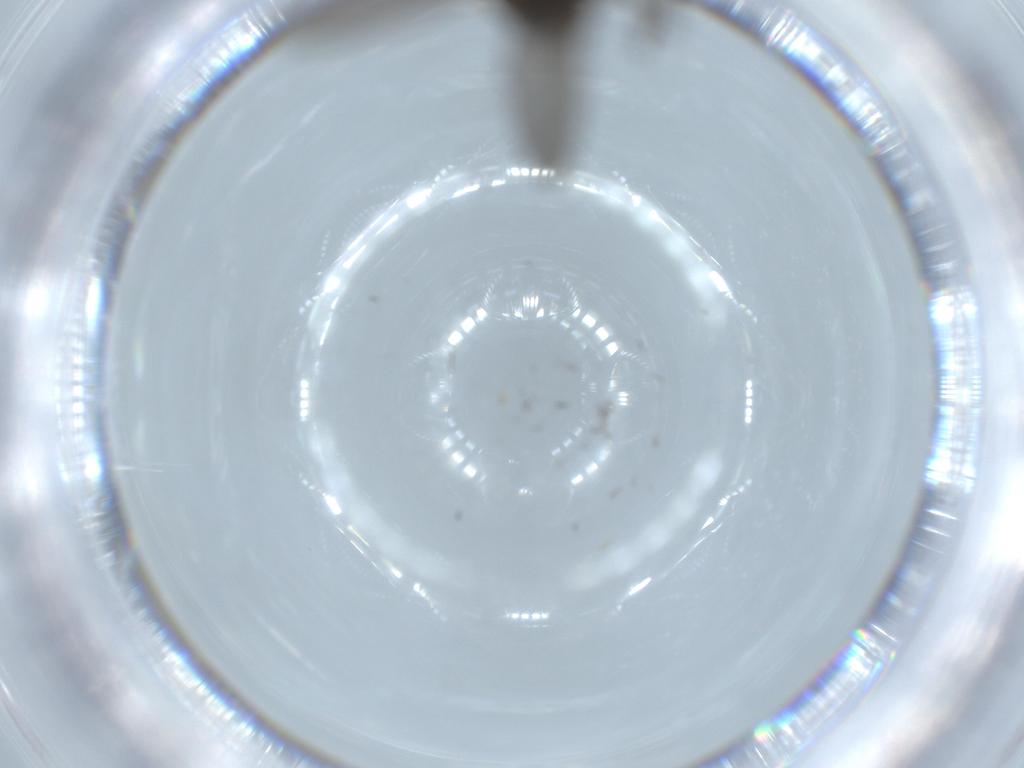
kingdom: Animalia
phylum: Arthropoda
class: Insecta
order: Diptera
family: Sciaridae
